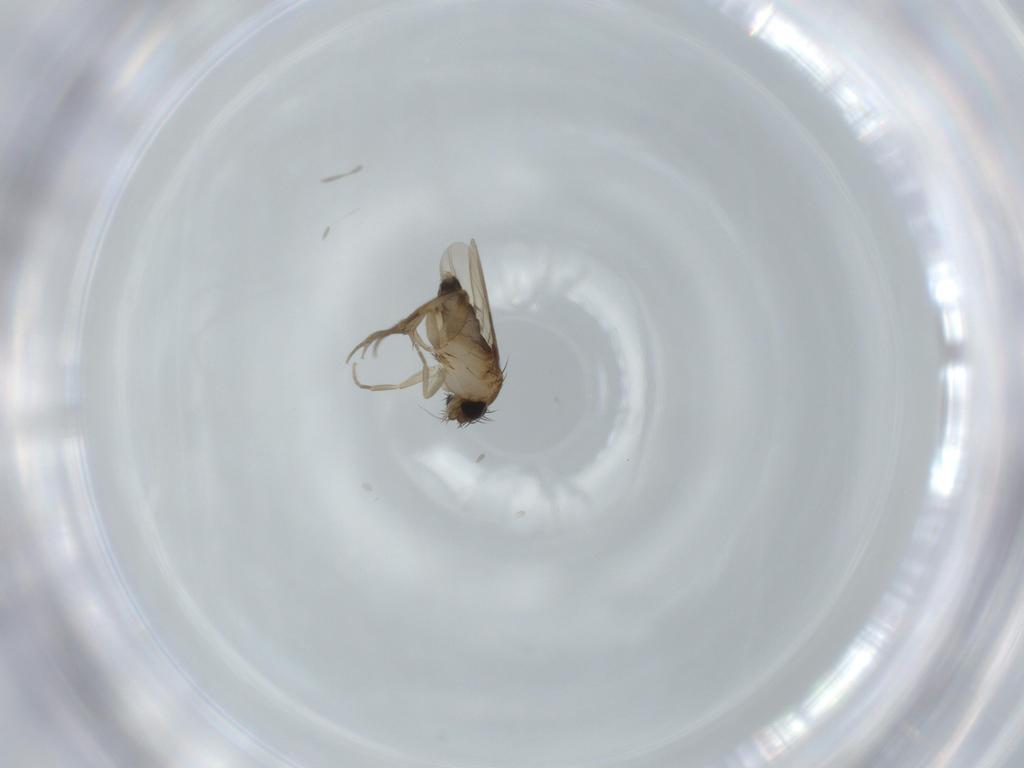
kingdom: Animalia
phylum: Arthropoda
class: Insecta
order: Diptera
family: Phoridae
